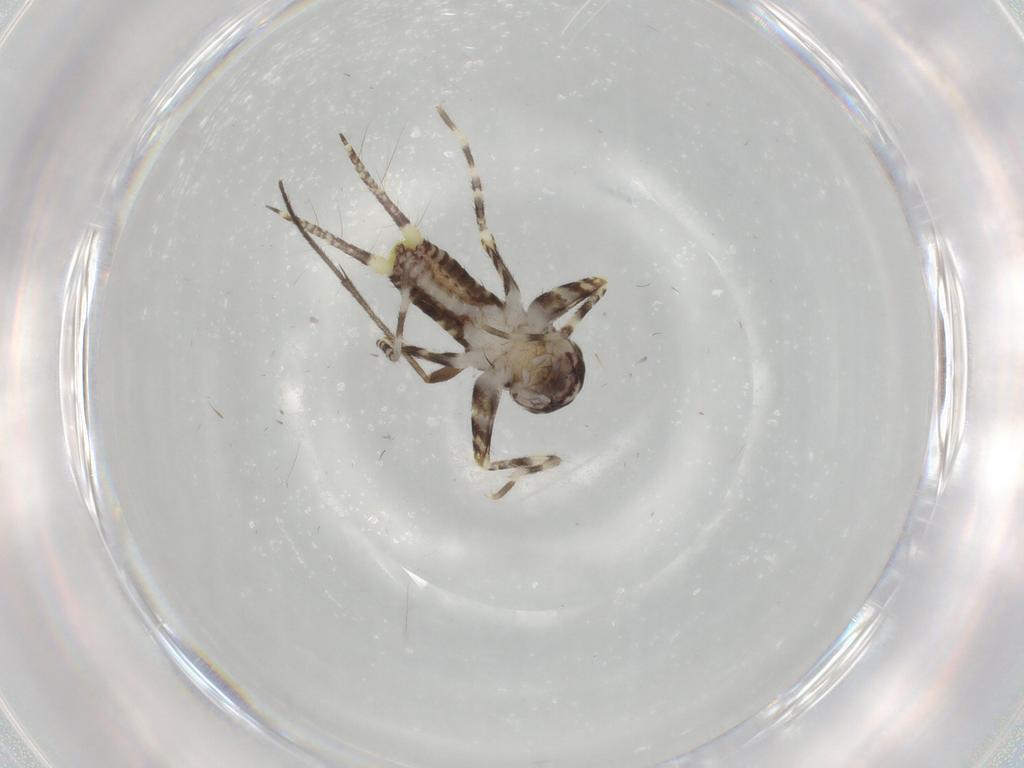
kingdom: Animalia
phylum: Arthropoda
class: Insecta
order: Orthoptera
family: Gryllidae
